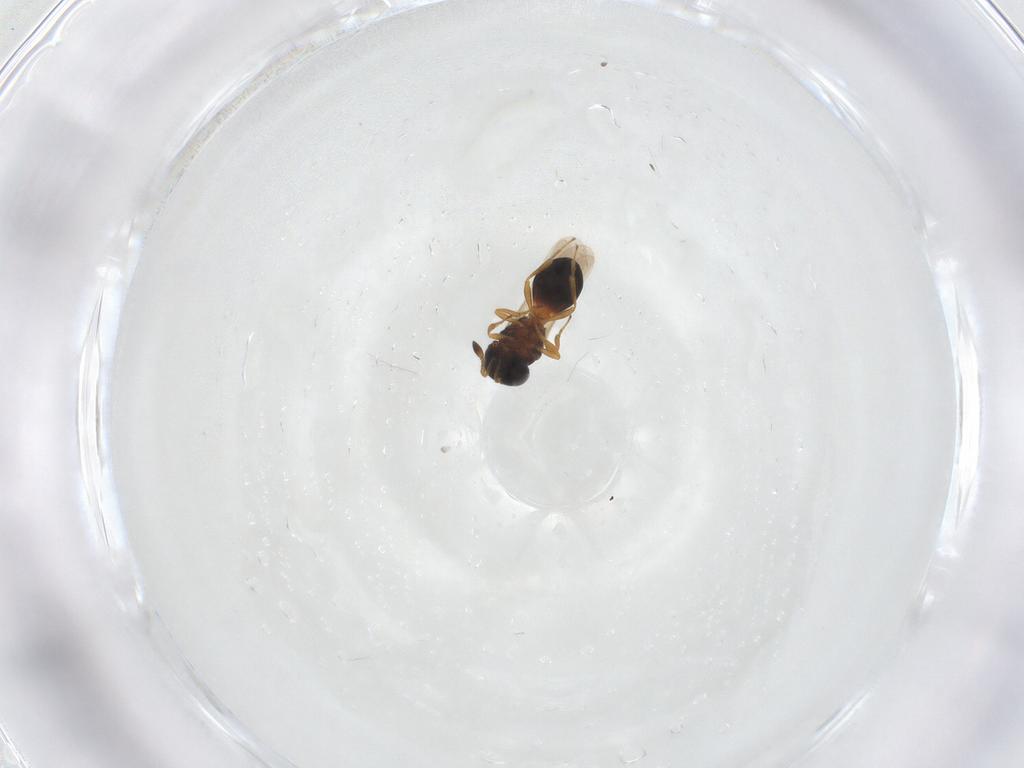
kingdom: Animalia
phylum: Arthropoda
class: Insecta
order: Hymenoptera
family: Scelionidae
